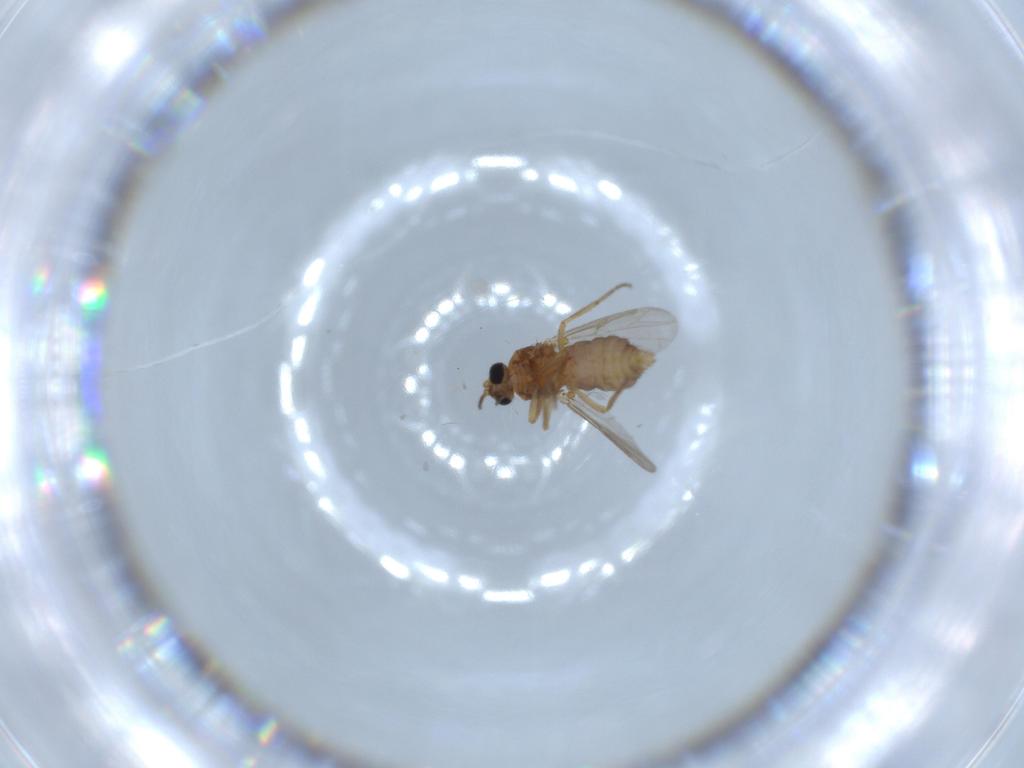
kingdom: Animalia
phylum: Arthropoda
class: Insecta
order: Diptera
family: Ceratopogonidae
